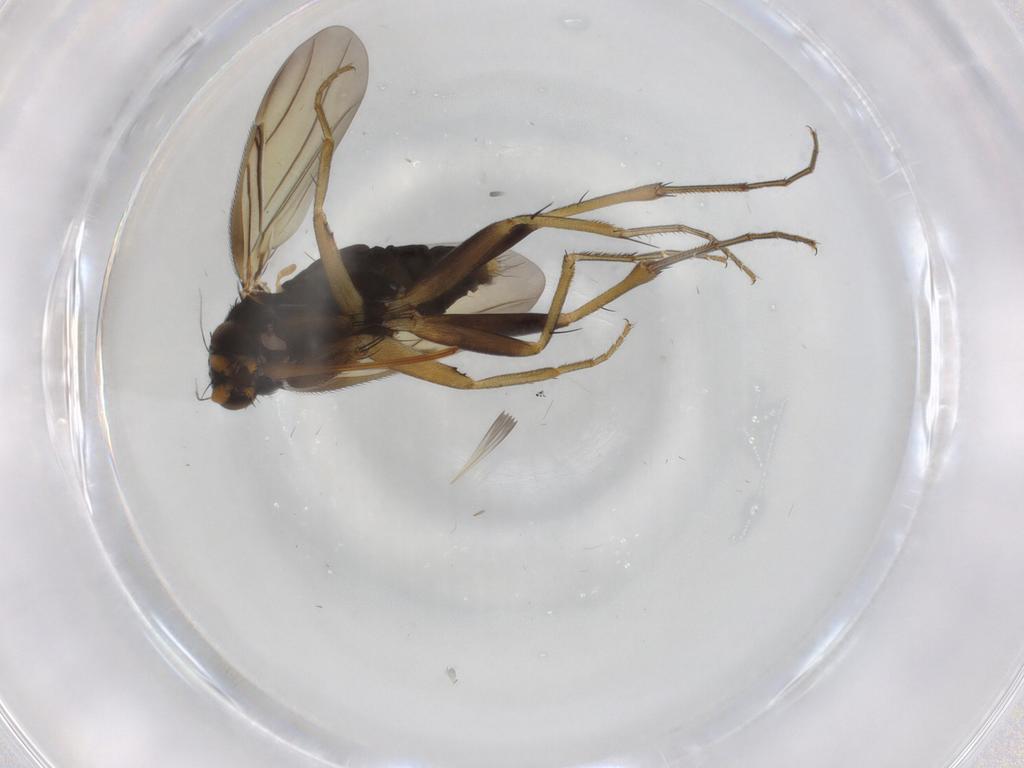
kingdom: Animalia
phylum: Arthropoda
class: Insecta
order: Diptera
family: Phoridae
